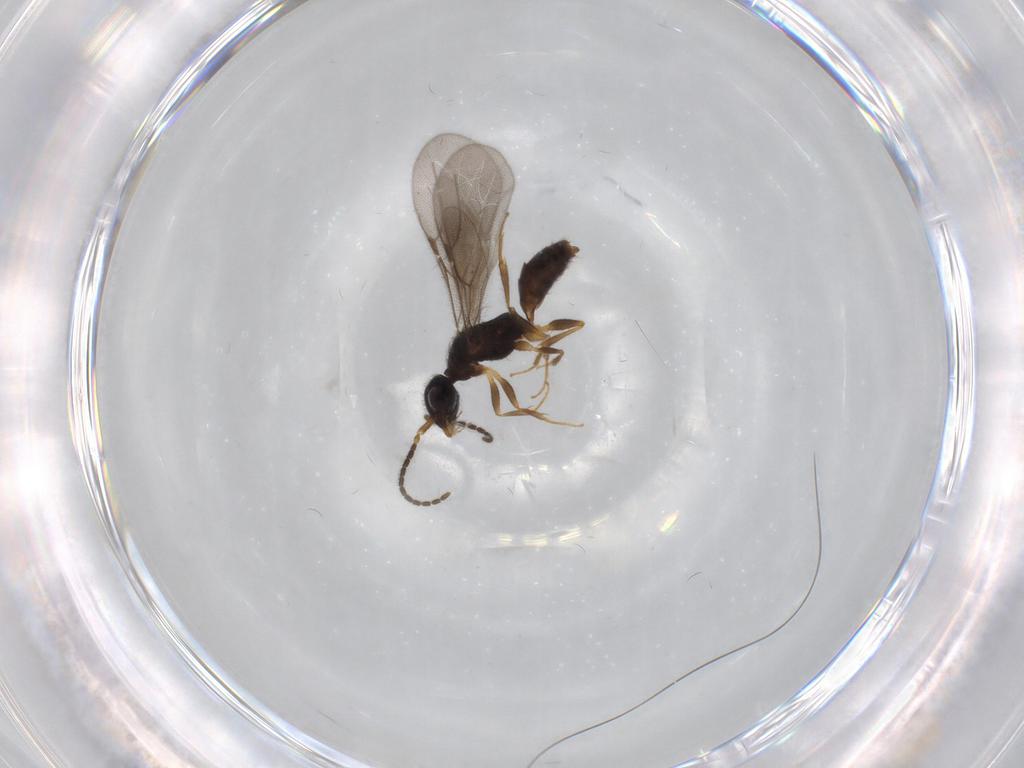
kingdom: Animalia
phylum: Arthropoda
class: Insecta
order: Hymenoptera
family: Bethylidae
